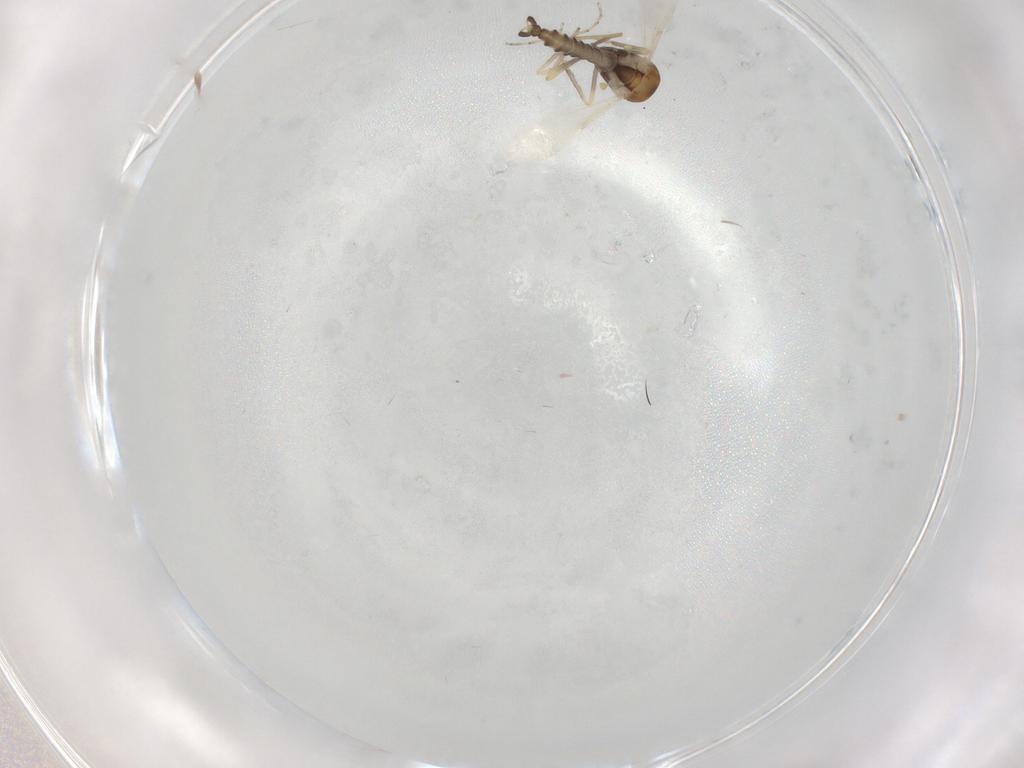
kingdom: Animalia
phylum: Arthropoda
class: Insecta
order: Diptera
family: Ceratopogonidae
